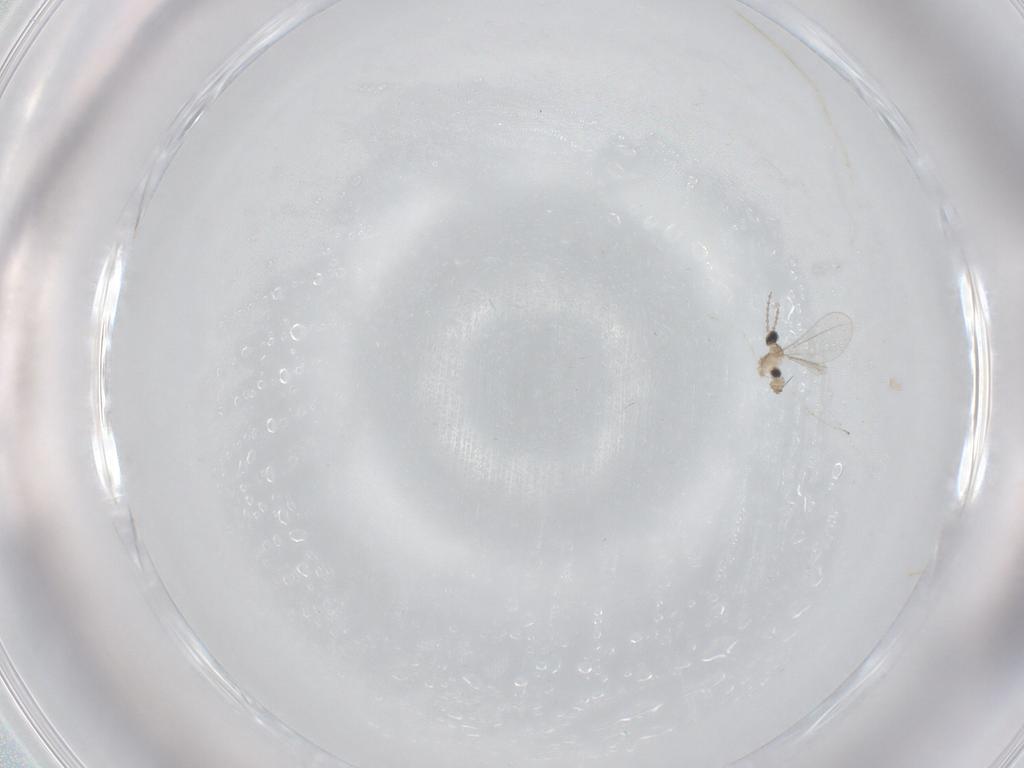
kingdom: Animalia
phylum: Arthropoda
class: Insecta
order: Diptera
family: Cecidomyiidae
